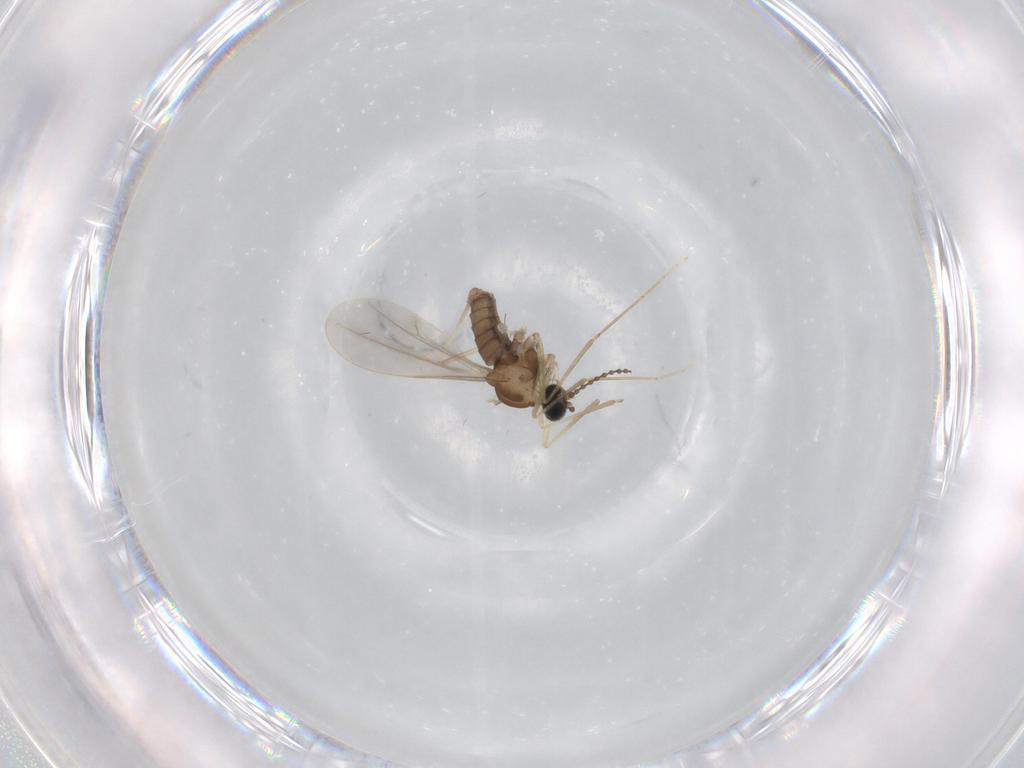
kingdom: Animalia
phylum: Arthropoda
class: Insecta
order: Diptera
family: Cecidomyiidae
